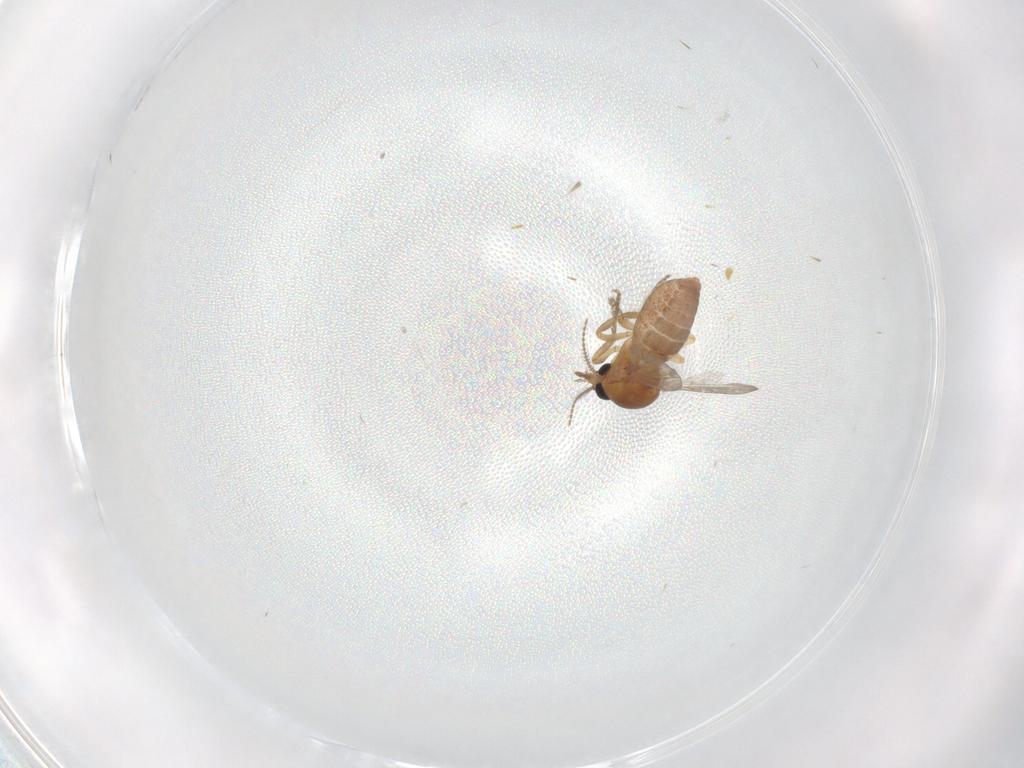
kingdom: Animalia
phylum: Arthropoda
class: Insecta
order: Diptera
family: Ceratopogonidae
